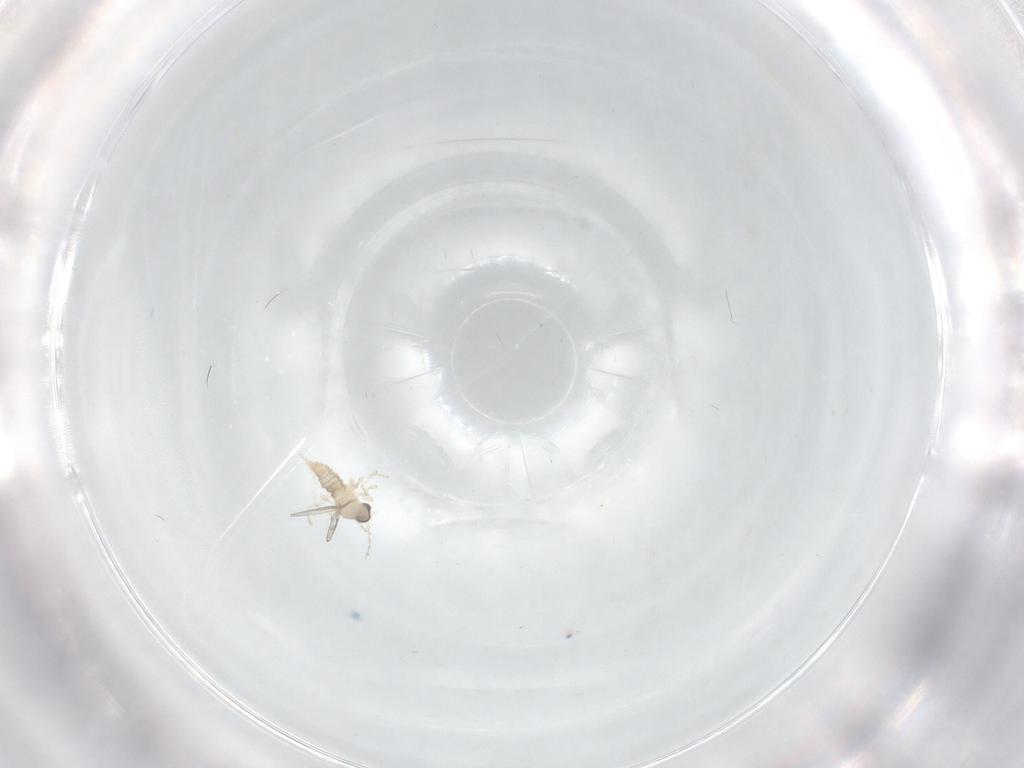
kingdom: Animalia
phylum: Arthropoda
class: Insecta
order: Diptera
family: Ceratopogonidae
